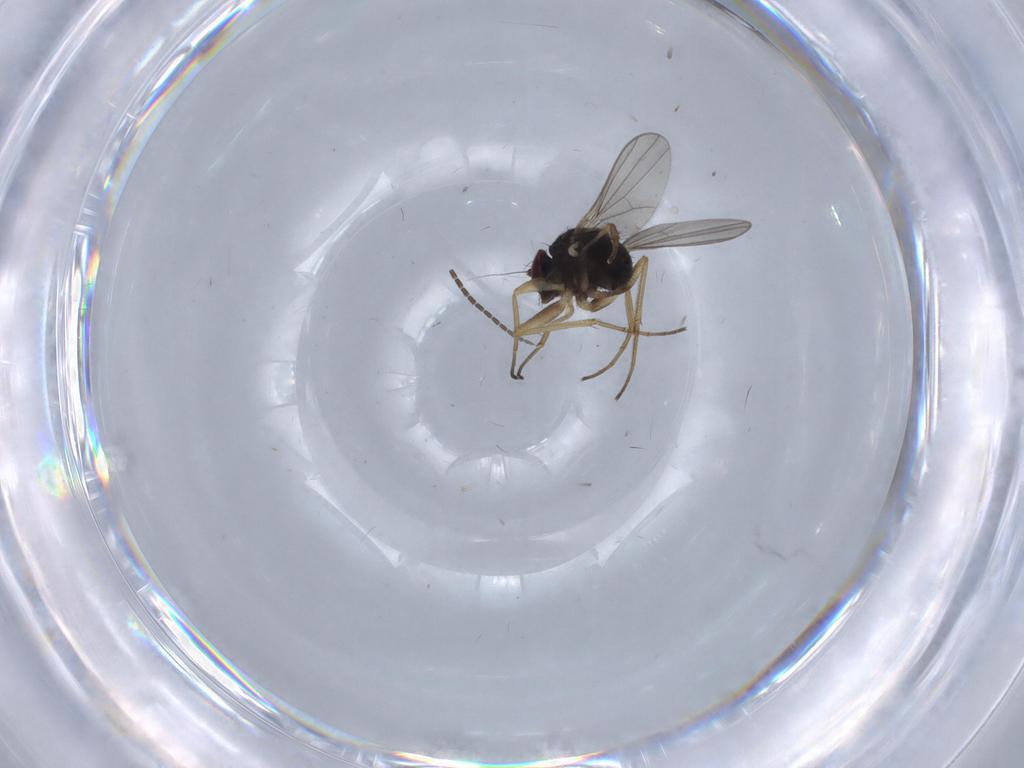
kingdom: Animalia
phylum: Arthropoda
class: Insecta
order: Diptera
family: Dolichopodidae
